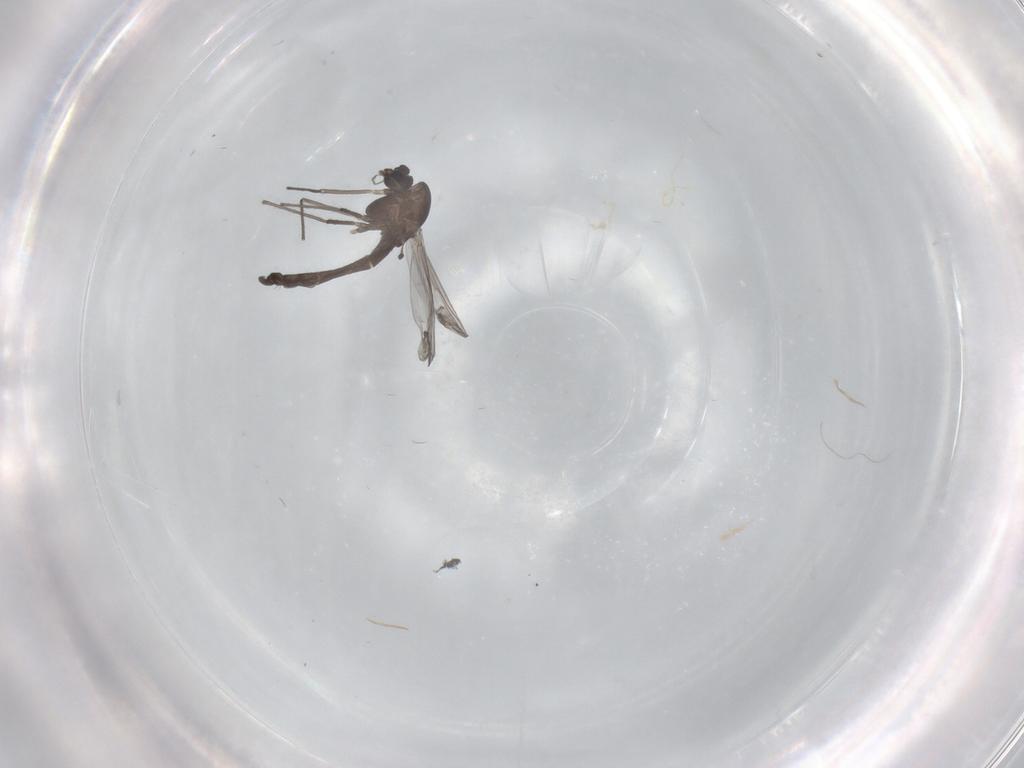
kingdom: Animalia
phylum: Arthropoda
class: Insecta
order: Diptera
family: Chironomidae
